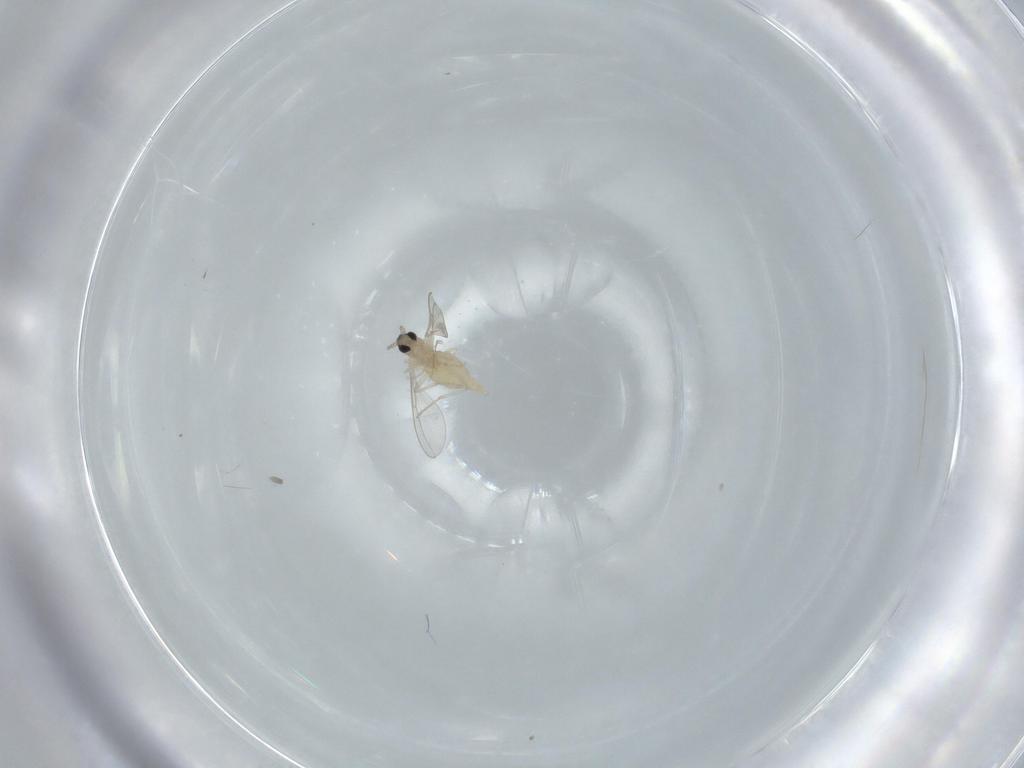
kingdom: Animalia
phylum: Arthropoda
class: Insecta
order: Diptera
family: Cecidomyiidae
